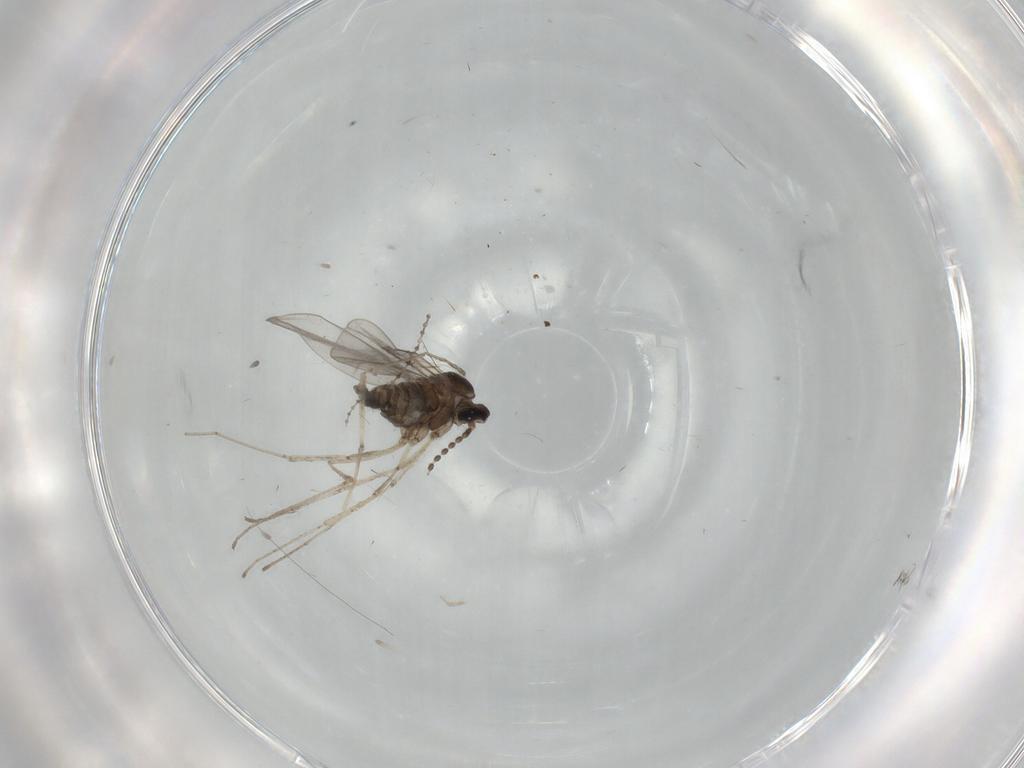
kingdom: Animalia
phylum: Arthropoda
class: Insecta
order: Diptera
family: Cecidomyiidae
